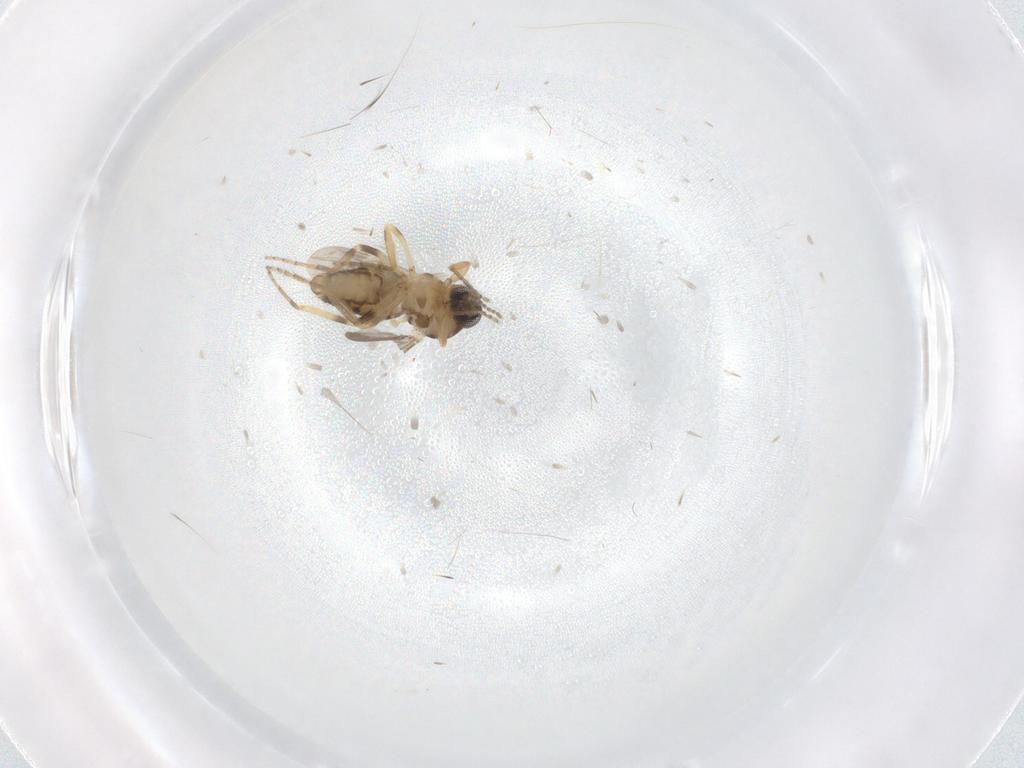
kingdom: Animalia
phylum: Arthropoda
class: Insecta
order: Diptera
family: Ceratopogonidae
